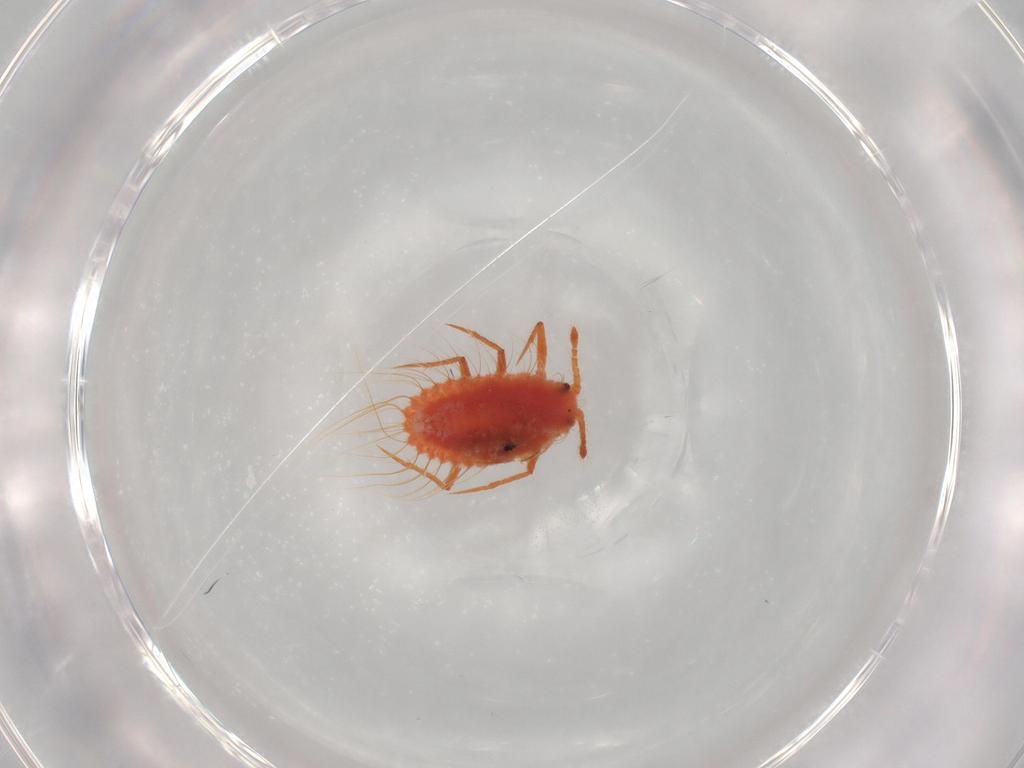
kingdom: Animalia
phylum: Arthropoda
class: Insecta
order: Hemiptera
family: Monophlebidae
